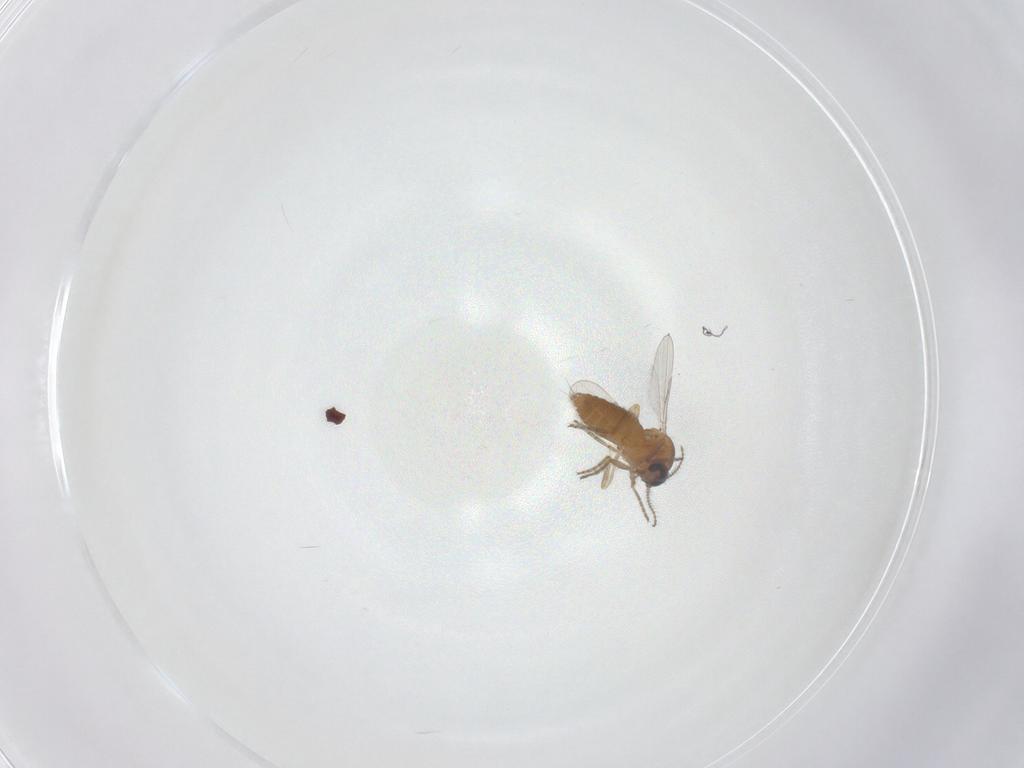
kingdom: Animalia
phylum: Arthropoda
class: Insecta
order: Diptera
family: Ceratopogonidae
